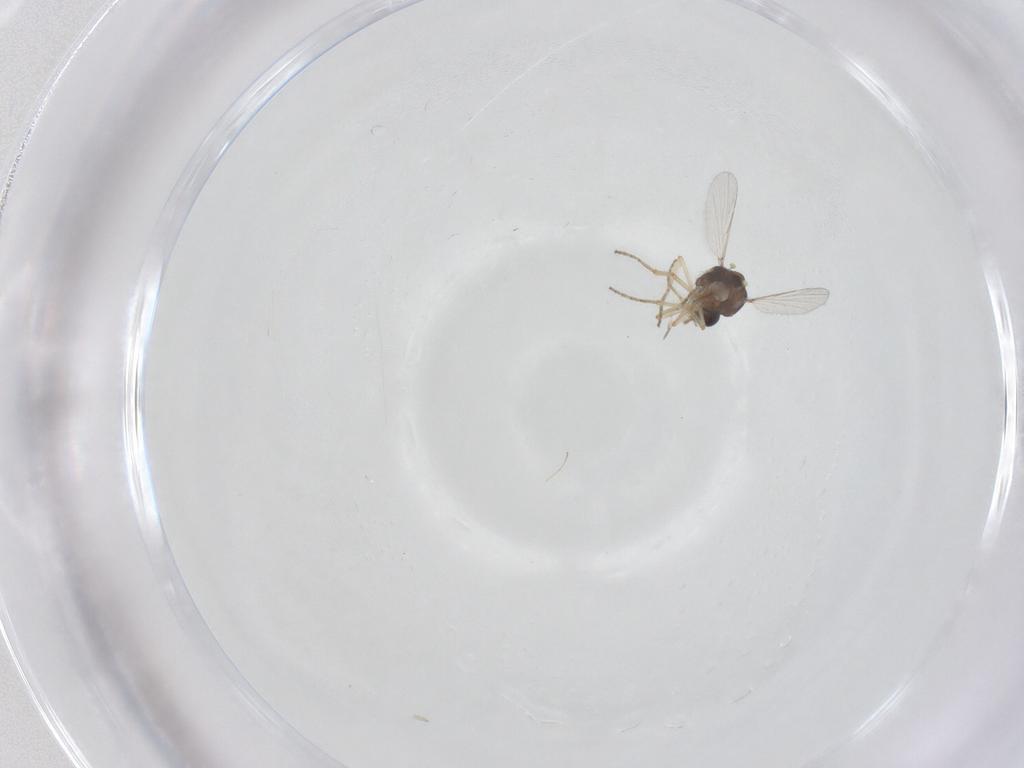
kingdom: Animalia
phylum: Arthropoda
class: Insecta
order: Diptera
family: Ceratopogonidae
